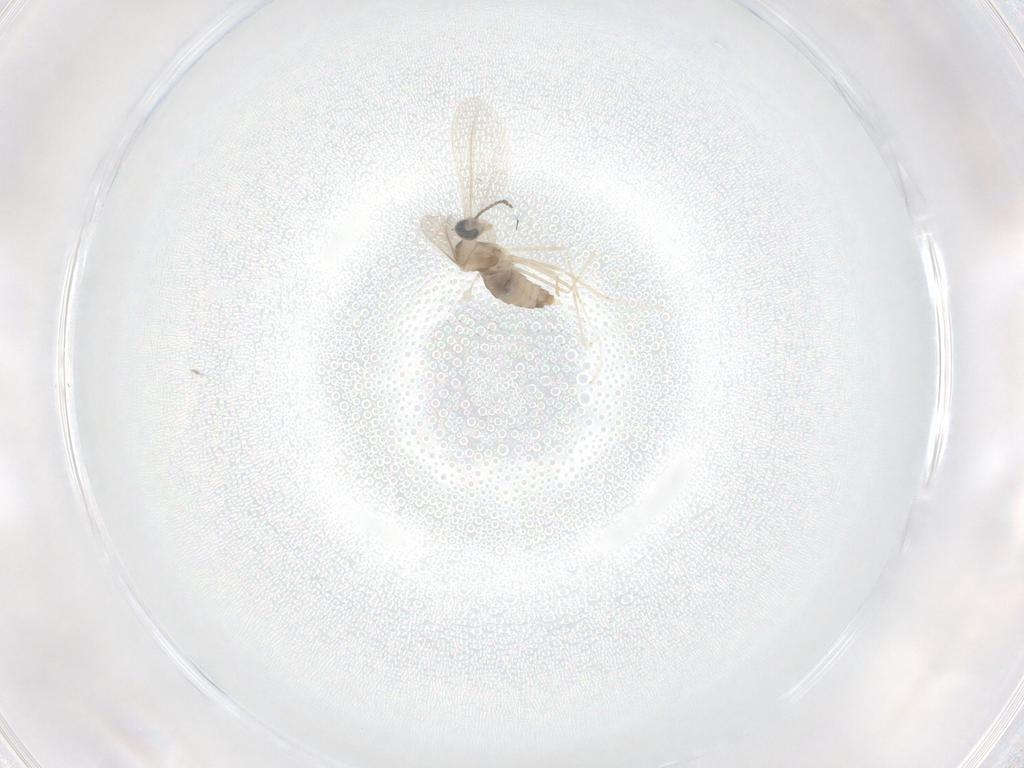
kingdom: Animalia
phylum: Arthropoda
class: Insecta
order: Diptera
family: Cecidomyiidae
